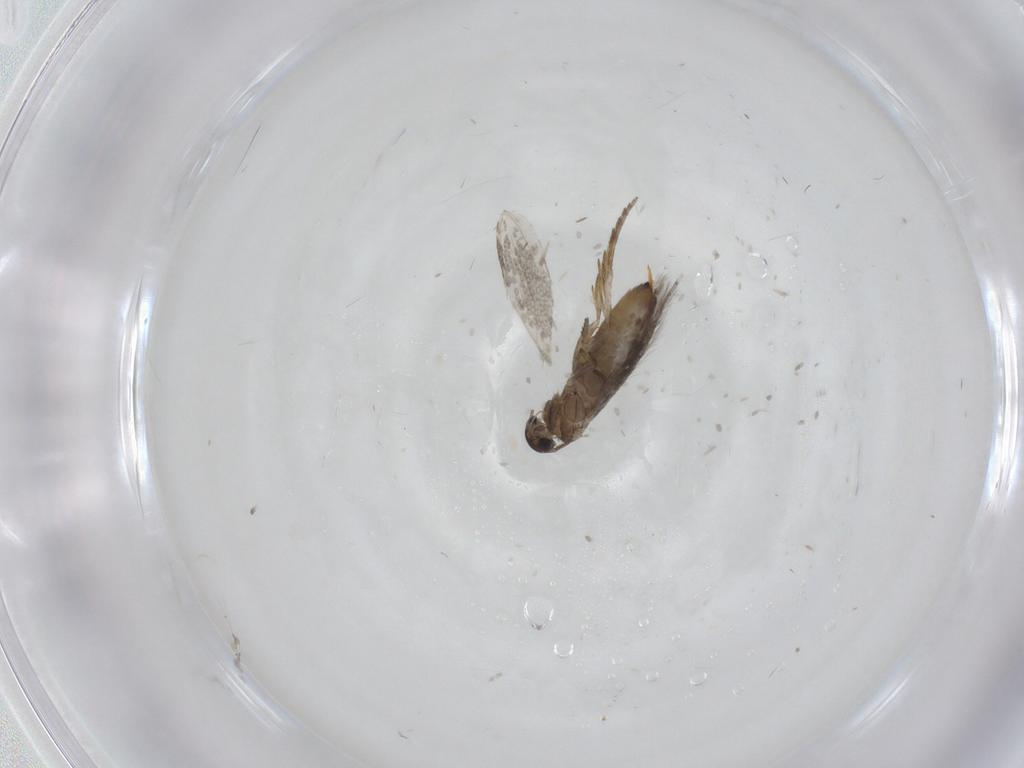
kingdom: Animalia
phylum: Arthropoda
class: Insecta
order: Lepidoptera
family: Heliozelidae
